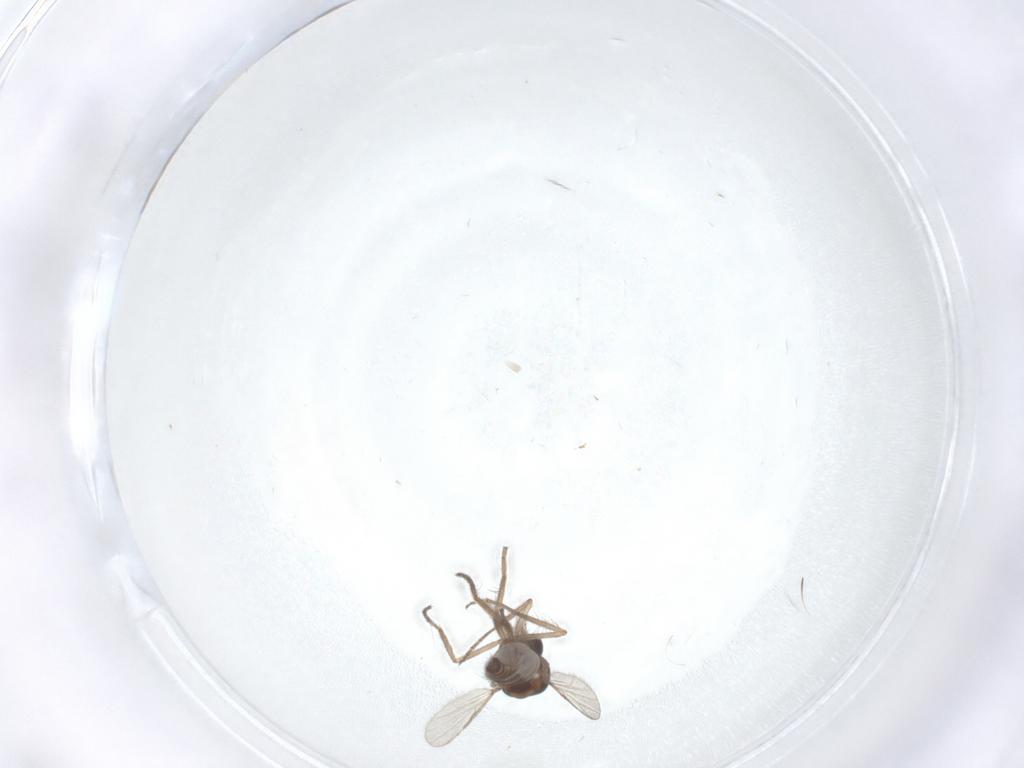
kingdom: Animalia
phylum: Arthropoda
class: Insecta
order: Diptera
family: Ceratopogonidae
